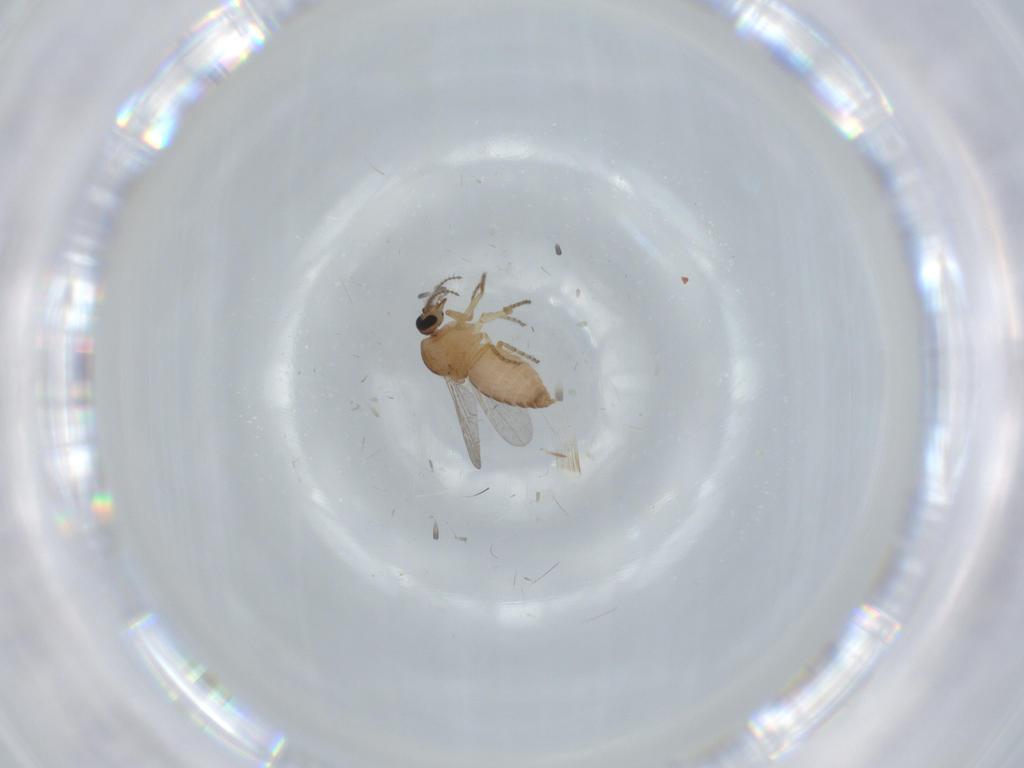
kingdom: Animalia
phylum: Arthropoda
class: Insecta
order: Diptera
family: Ceratopogonidae
